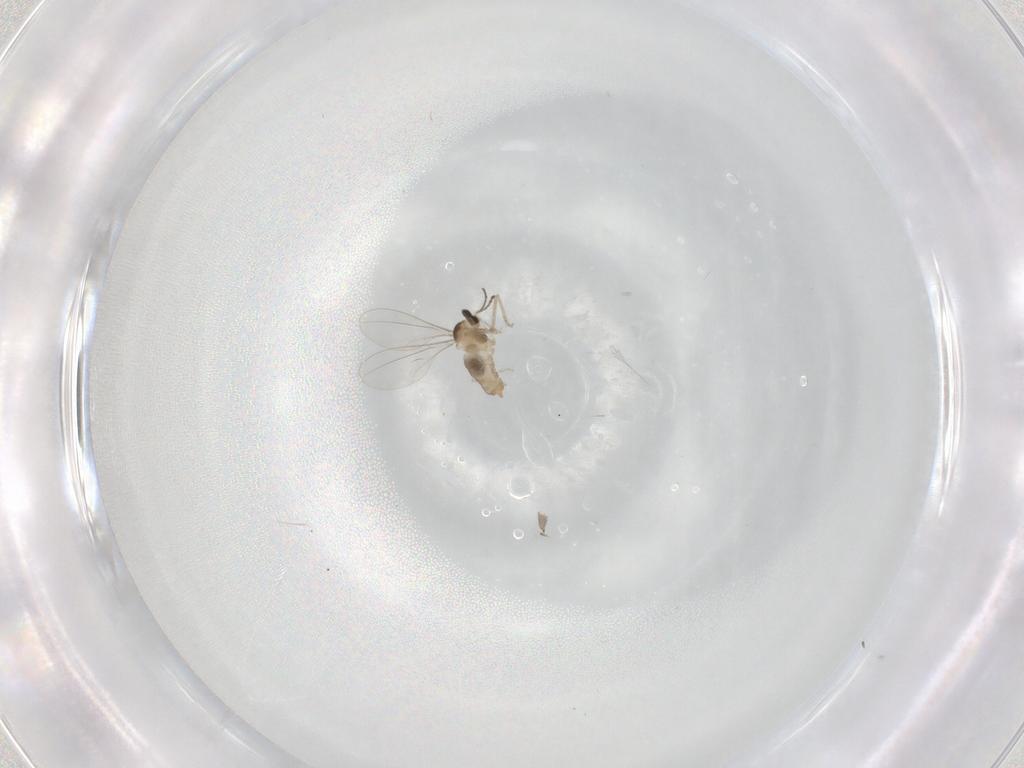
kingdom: Animalia
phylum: Arthropoda
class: Insecta
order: Diptera
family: Cecidomyiidae
